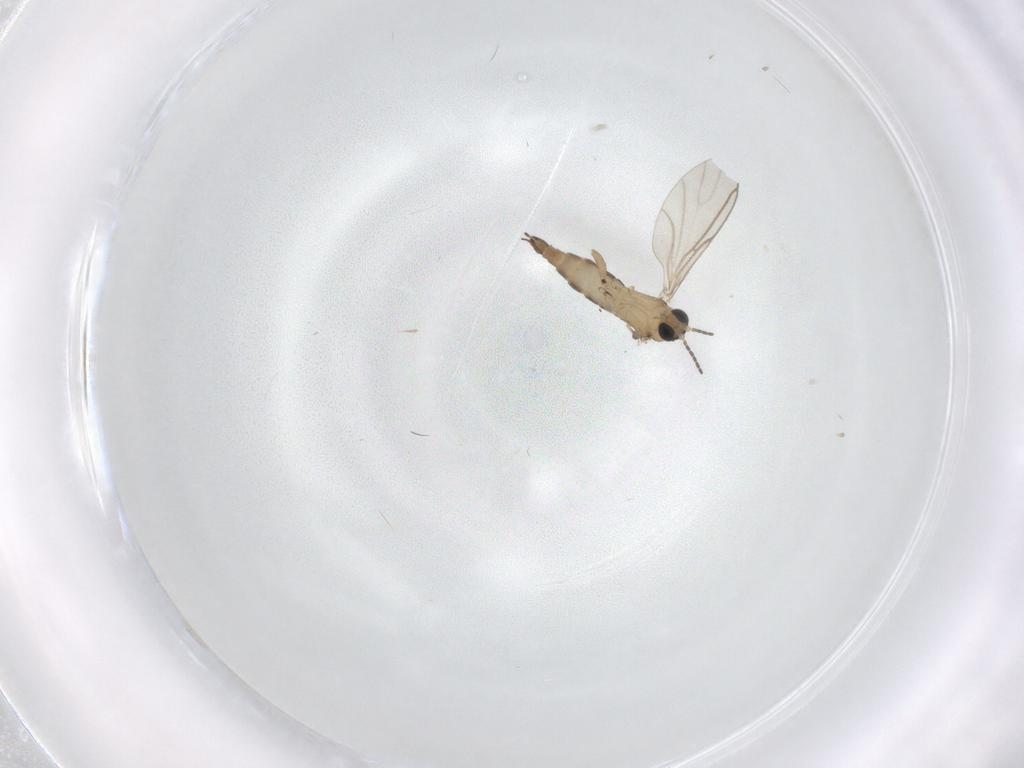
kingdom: Animalia
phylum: Arthropoda
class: Insecta
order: Diptera
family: Cecidomyiidae
